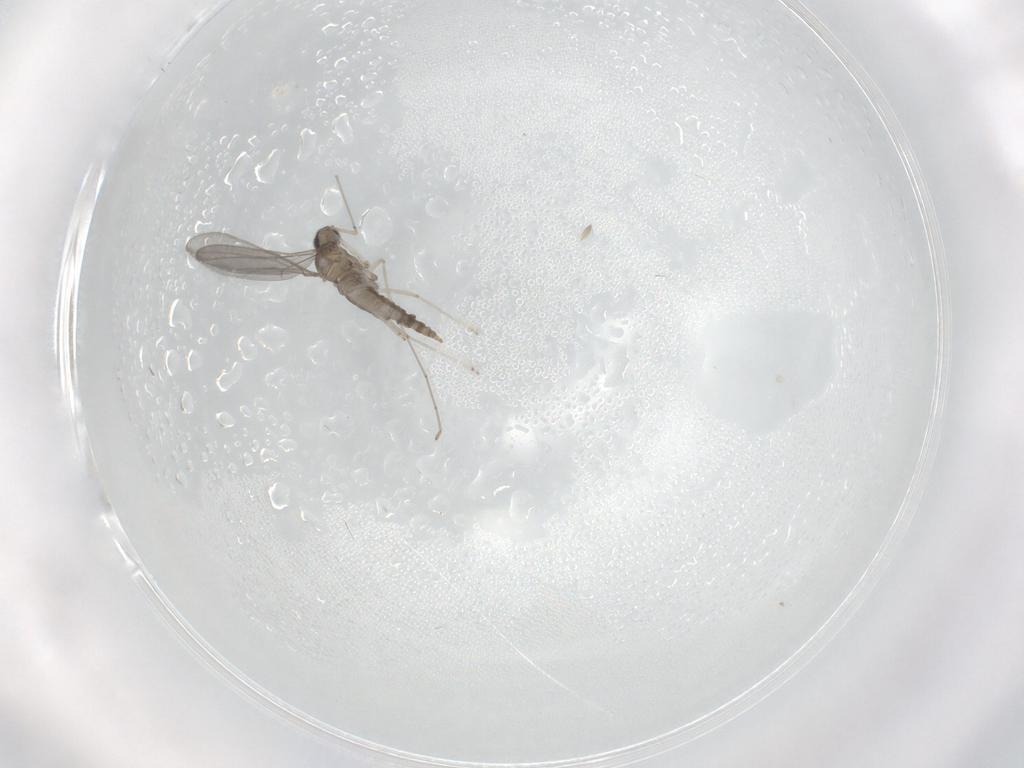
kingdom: Animalia
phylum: Arthropoda
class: Insecta
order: Diptera
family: Cecidomyiidae
